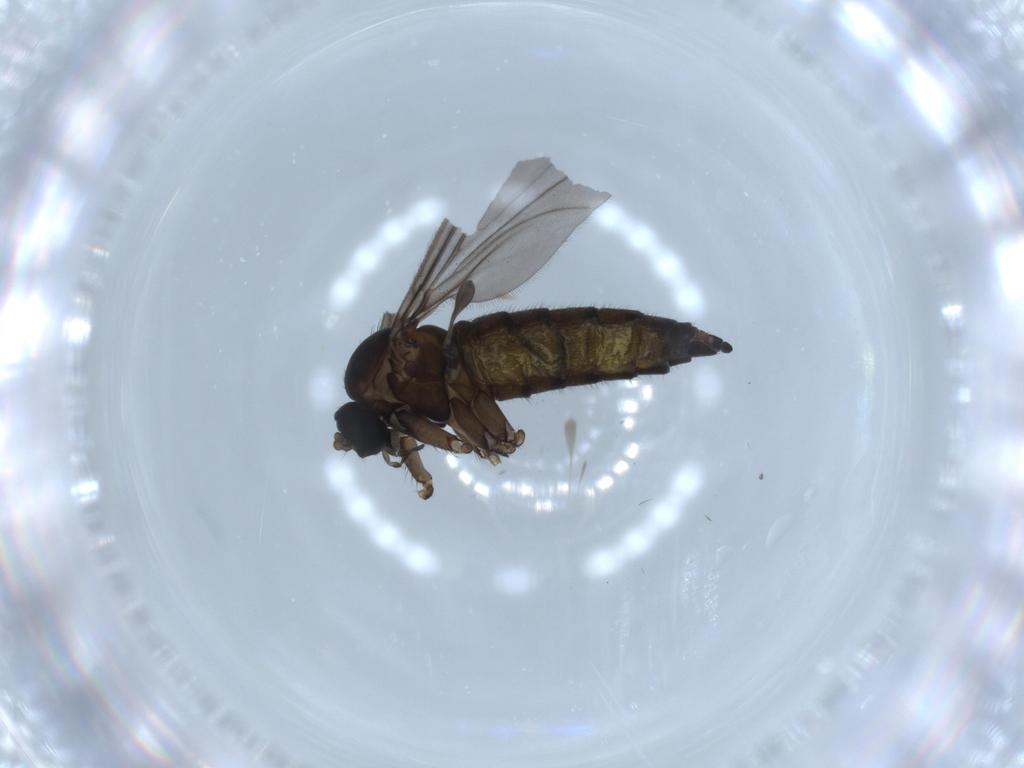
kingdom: Animalia
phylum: Arthropoda
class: Insecta
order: Diptera
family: Sciaridae
